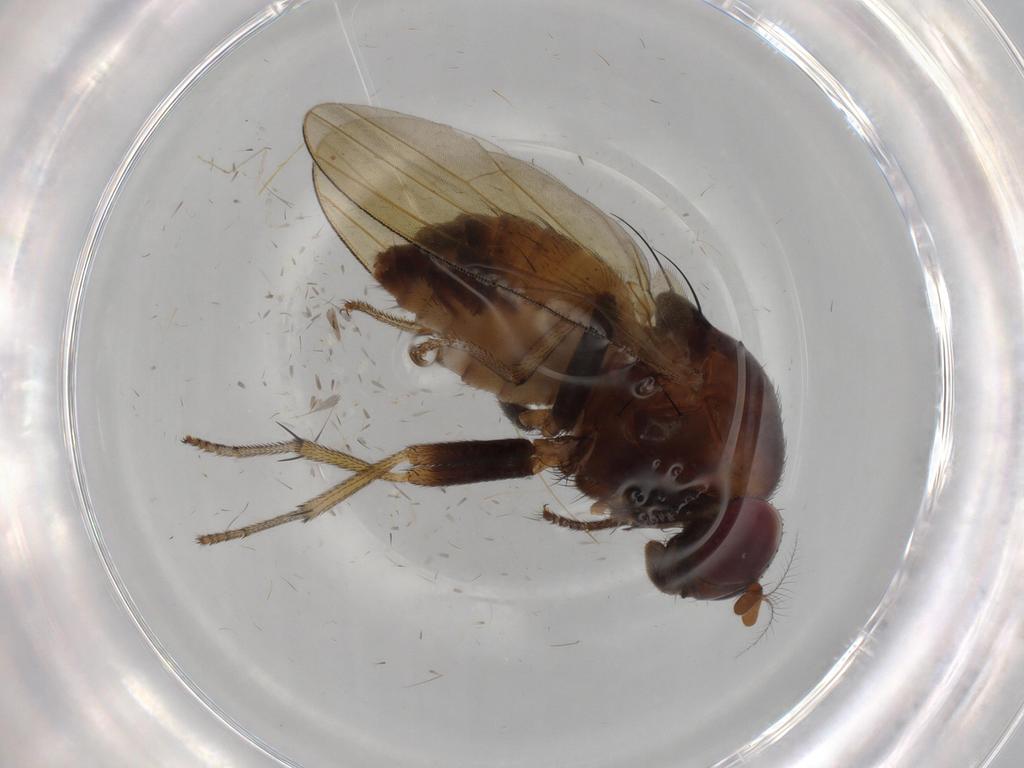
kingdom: Animalia
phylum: Arthropoda
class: Insecta
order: Diptera
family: Lauxaniidae
